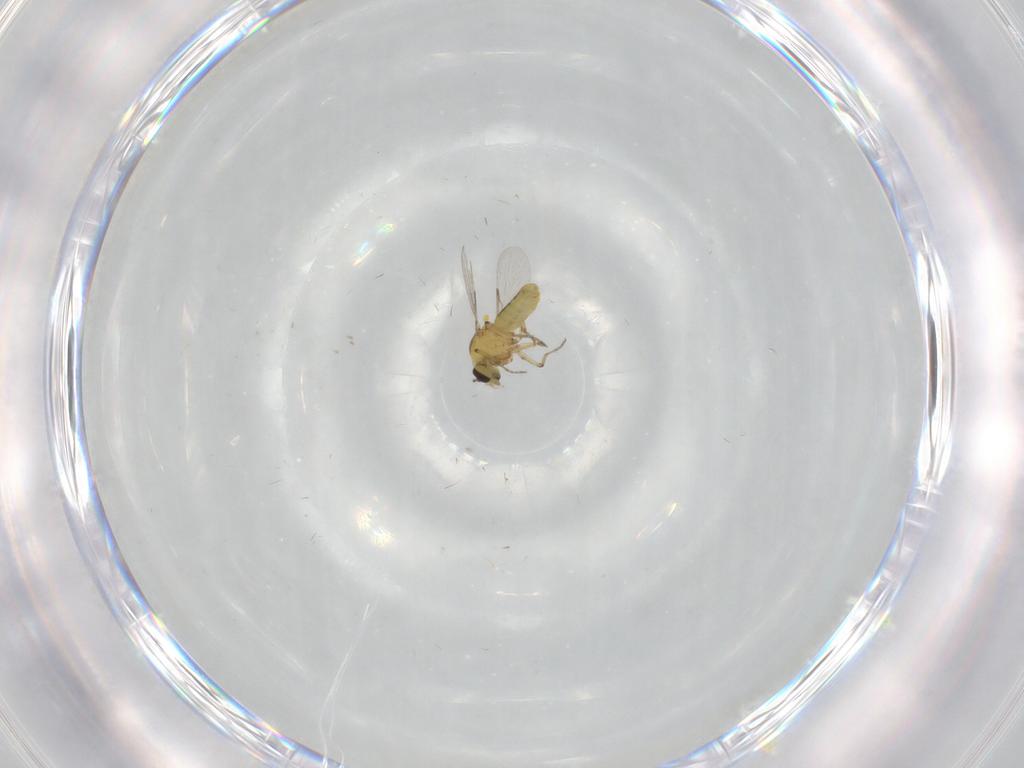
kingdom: Animalia
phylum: Arthropoda
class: Insecta
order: Diptera
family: Ceratopogonidae
